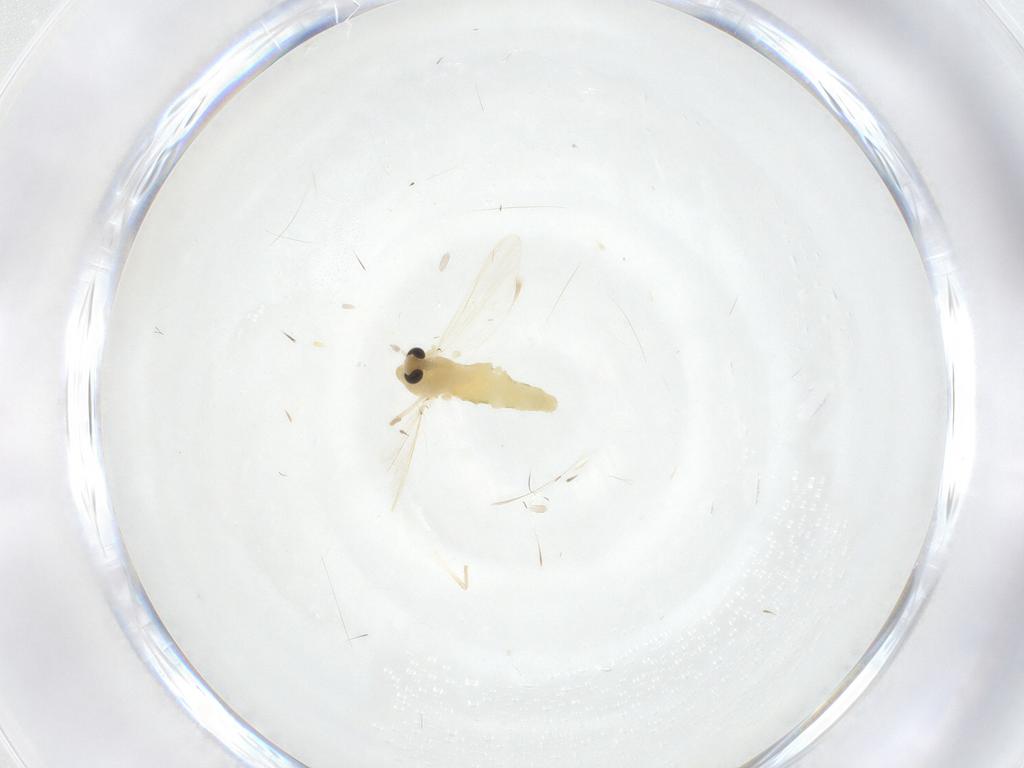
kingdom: Animalia
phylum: Arthropoda
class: Insecta
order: Diptera
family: Chironomidae
